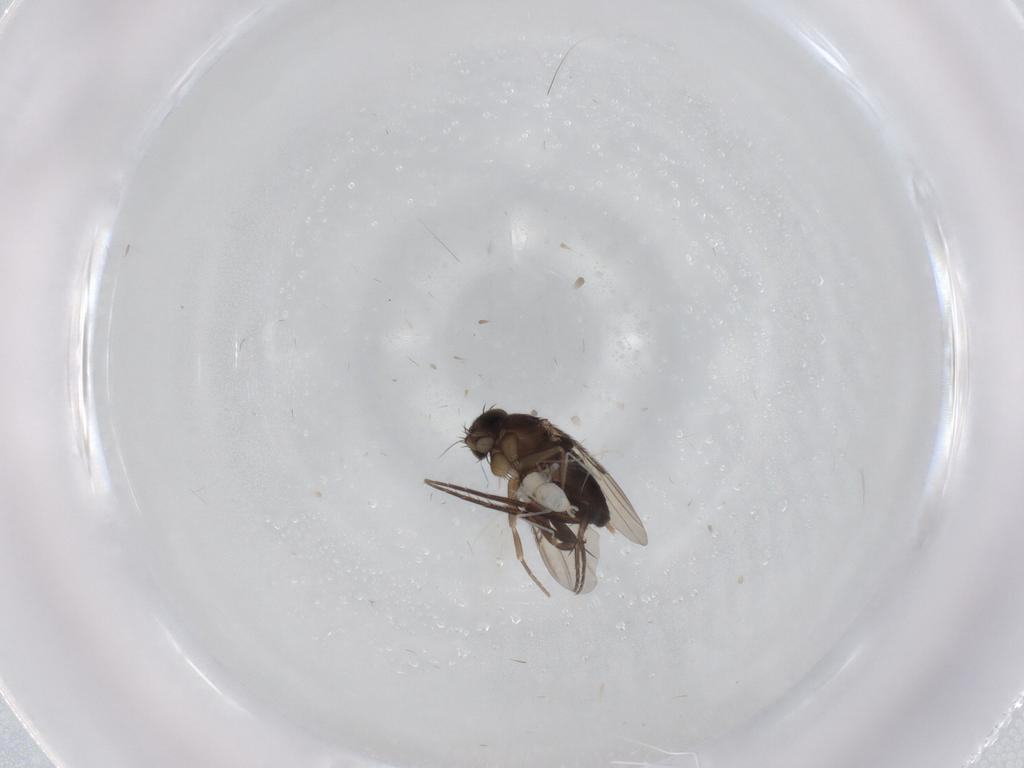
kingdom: Animalia
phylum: Arthropoda
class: Insecta
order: Diptera
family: Phoridae
